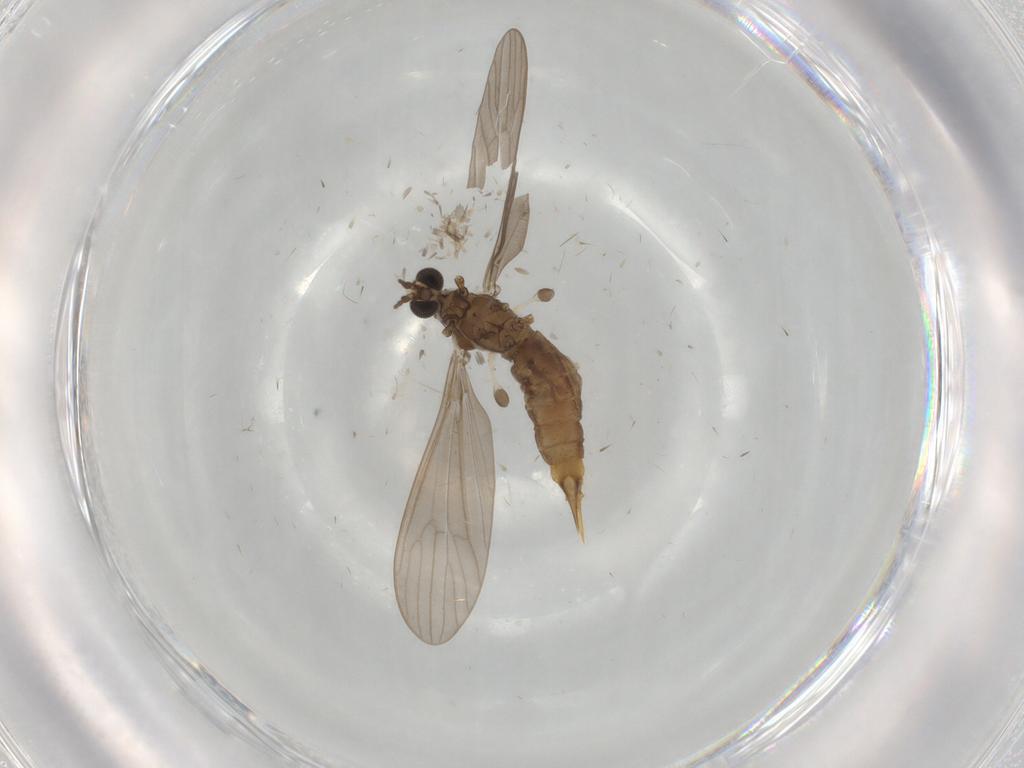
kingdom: Animalia
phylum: Arthropoda
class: Insecta
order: Diptera
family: Limoniidae
